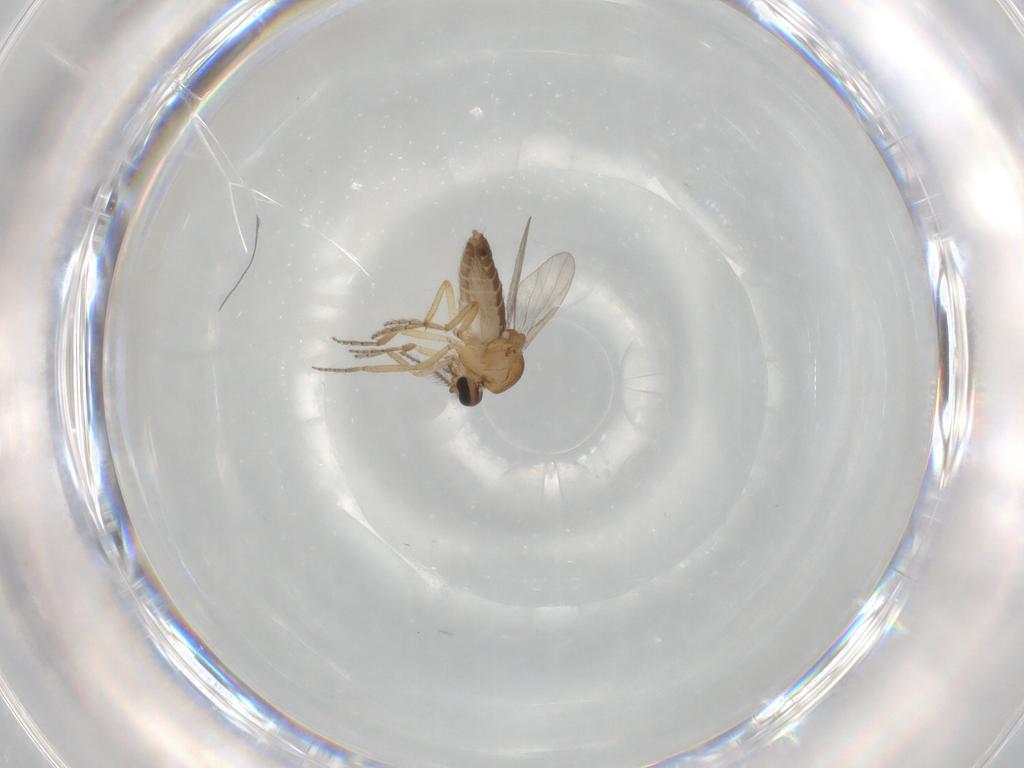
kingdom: Animalia
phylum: Arthropoda
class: Insecta
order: Diptera
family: Ceratopogonidae
